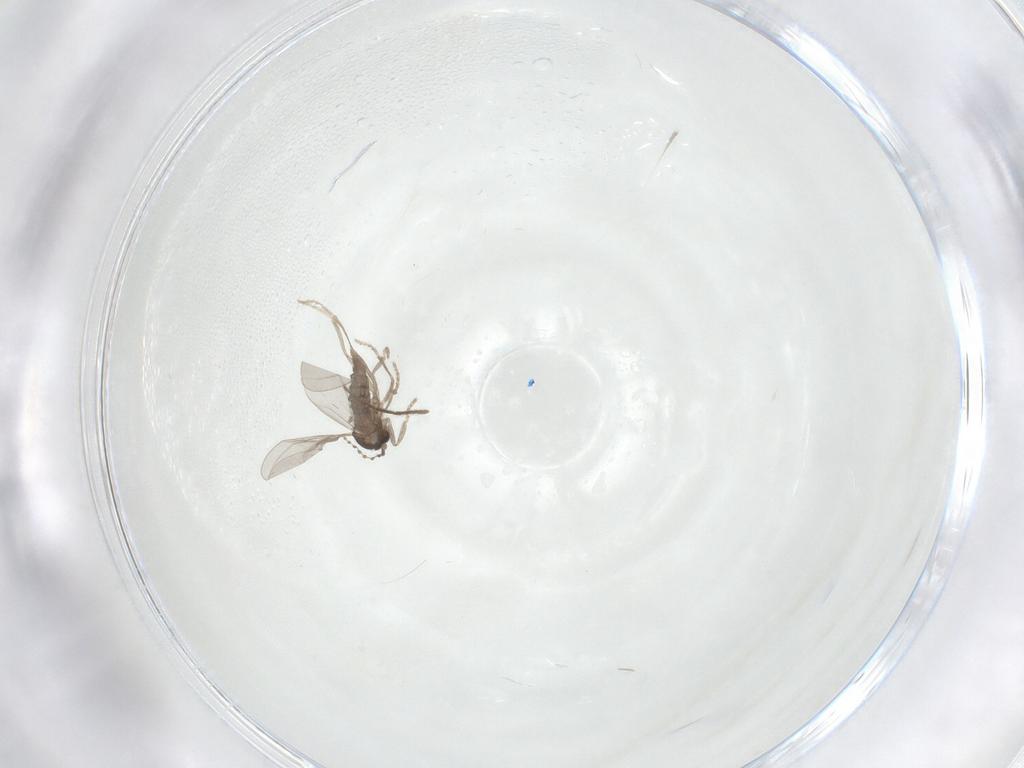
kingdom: Animalia
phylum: Arthropoda
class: Insecta
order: Diptera
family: Cecidomyiidae
